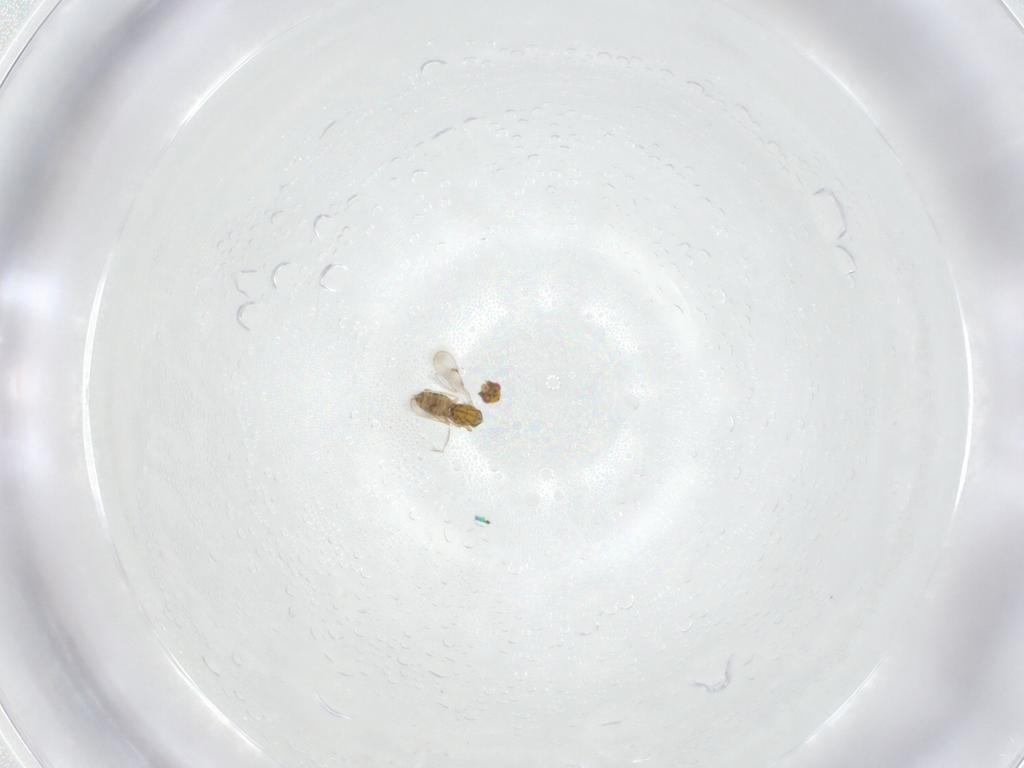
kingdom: Animalia
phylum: Arthropoda
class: Insecta
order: Hymenoptera
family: Eulophidae
